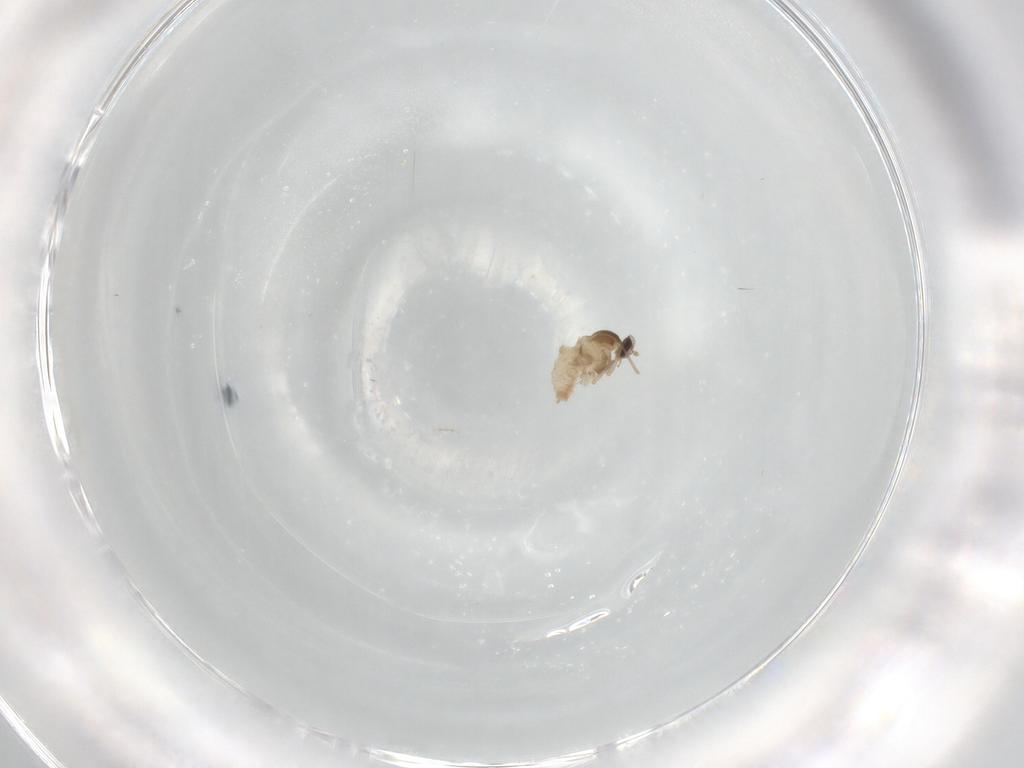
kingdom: Animalia
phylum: Arthropoda
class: Insecta
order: Diptera
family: Cecidomyiidae
